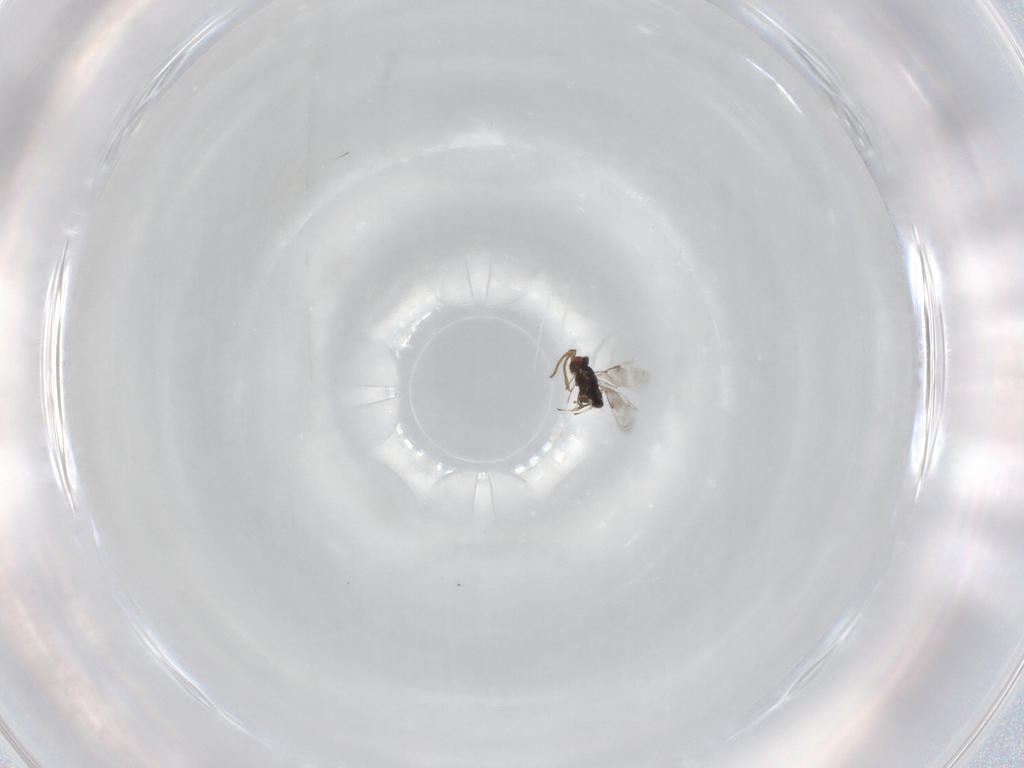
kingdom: Animalia
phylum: Arthropoda
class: Insecta
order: Hymenoptera
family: Azotidae
